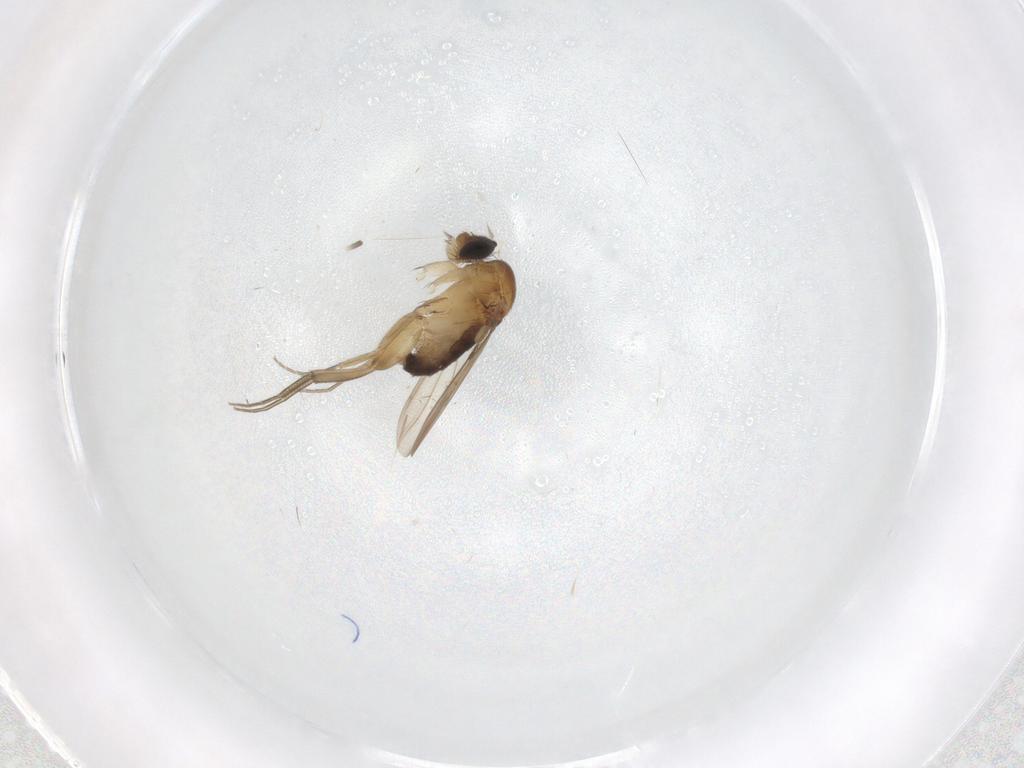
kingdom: Animalia
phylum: Arthropoda
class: Insecta
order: Diptera
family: Phoridae
